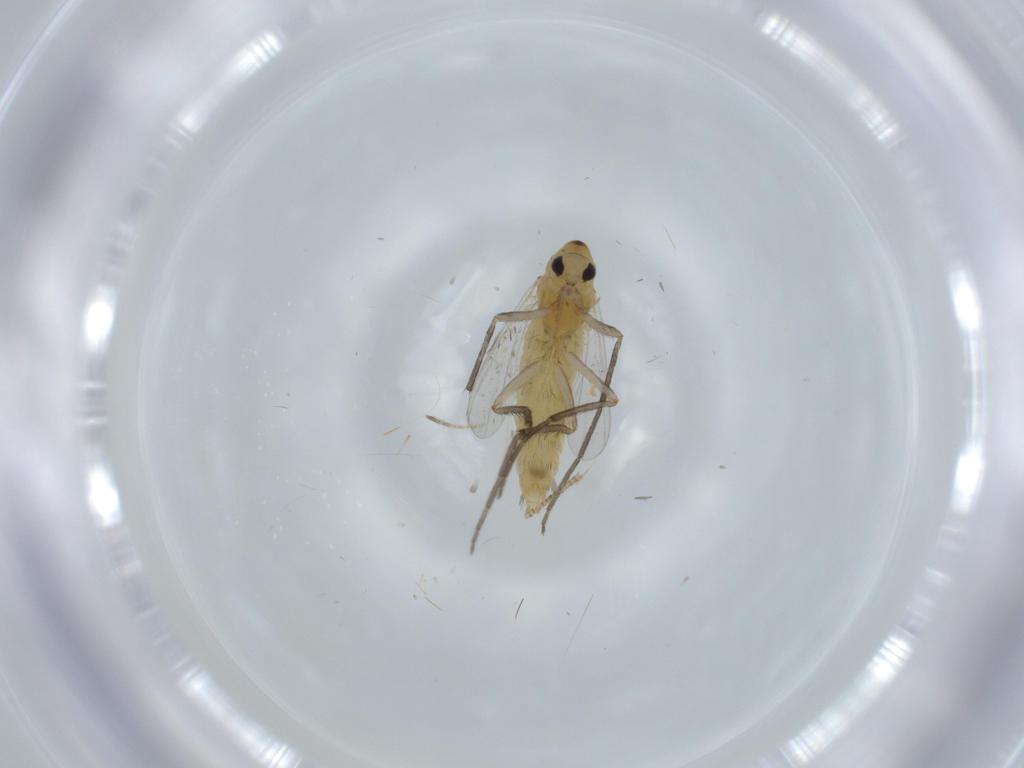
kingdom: Animalia
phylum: Arthropoda
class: Insecta
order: Diptera
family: Chironomidae
